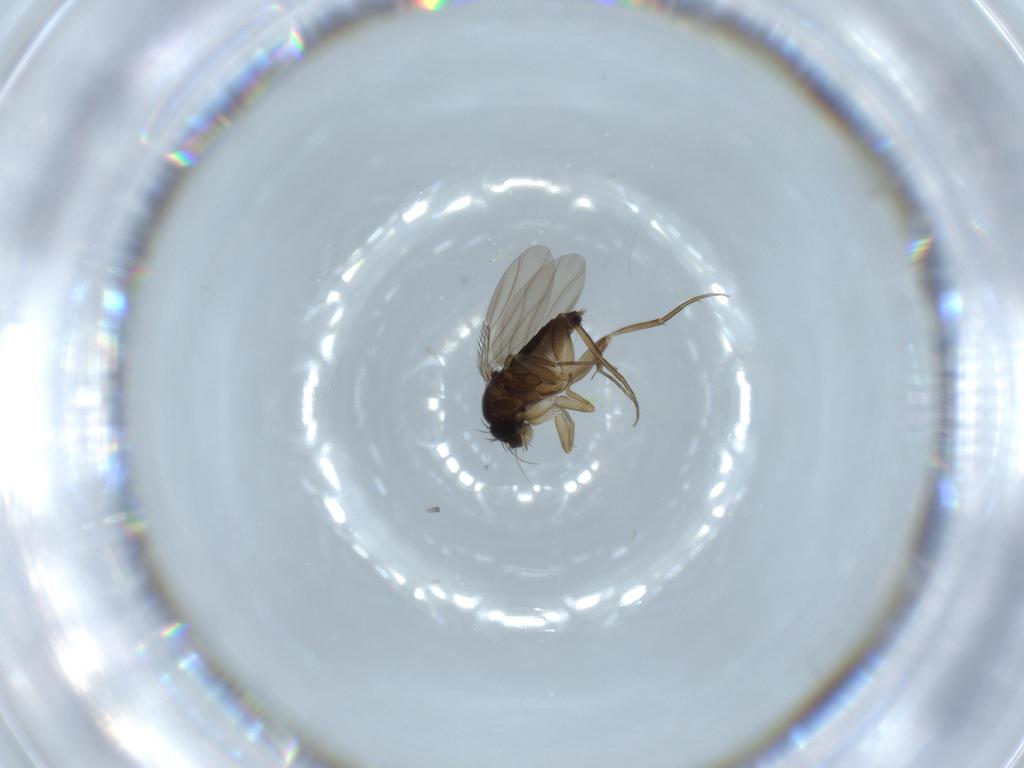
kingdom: Animalia
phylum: Arthropoda
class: Insecta
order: Diptera
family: Phoridae
